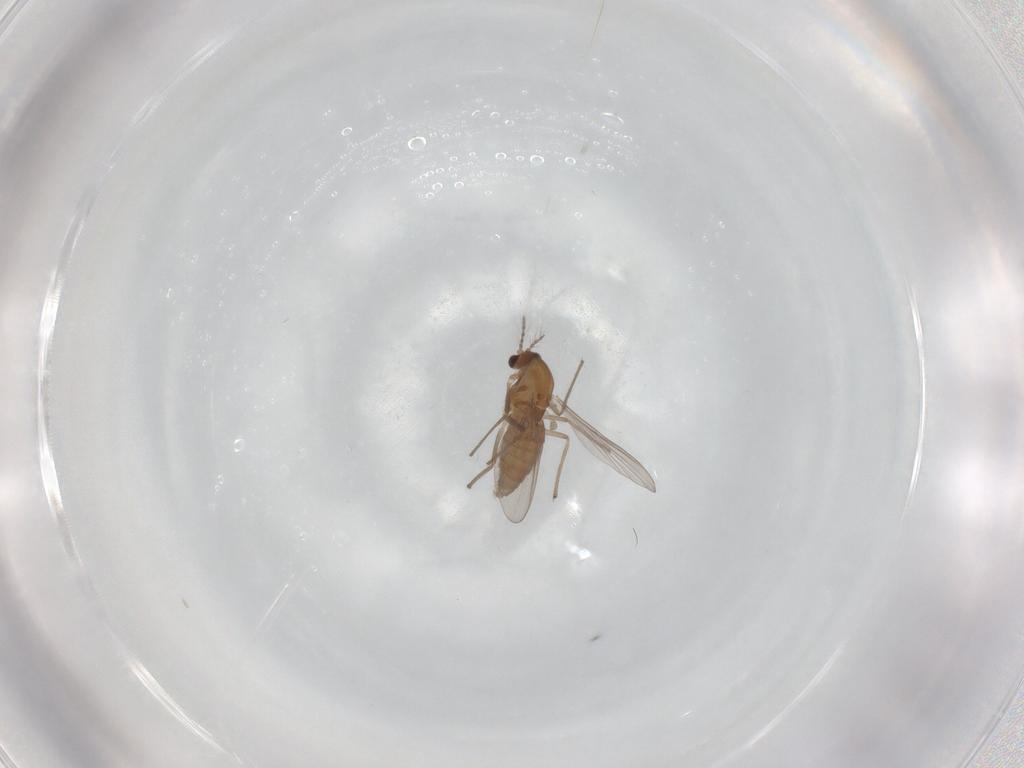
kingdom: Animalia
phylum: Arthropoda
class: Insecta
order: Diptera
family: Chironomidae
